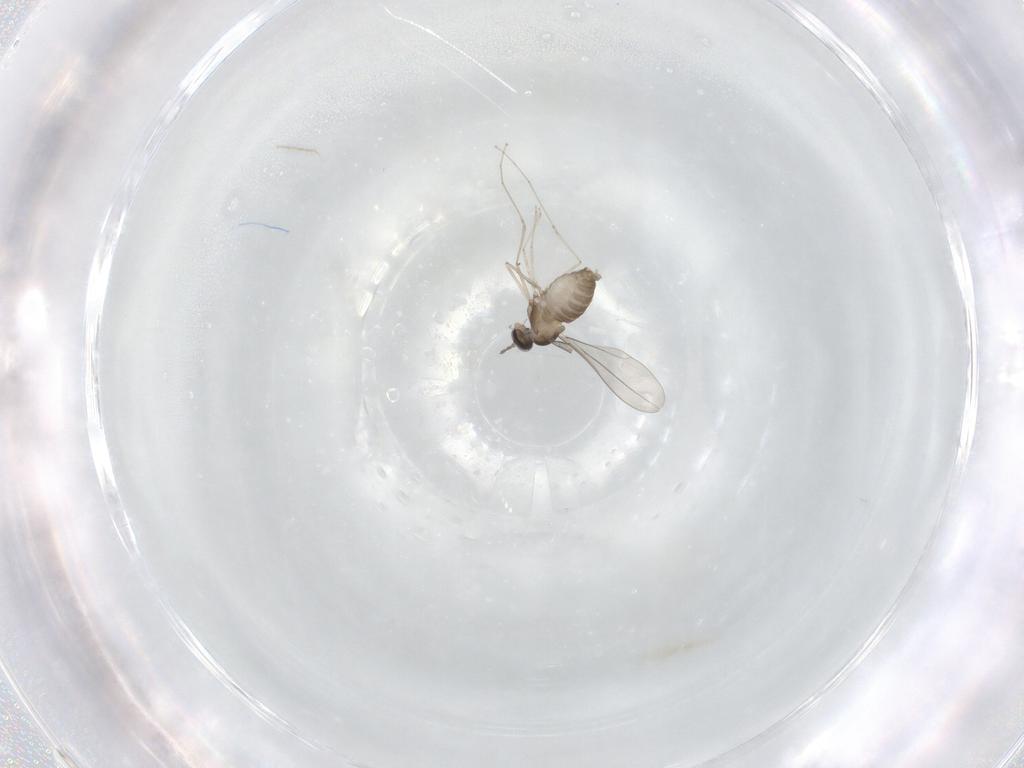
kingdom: Animalia
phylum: Arthropoda
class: Insecta
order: Diptera
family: Cecidomyiidae
